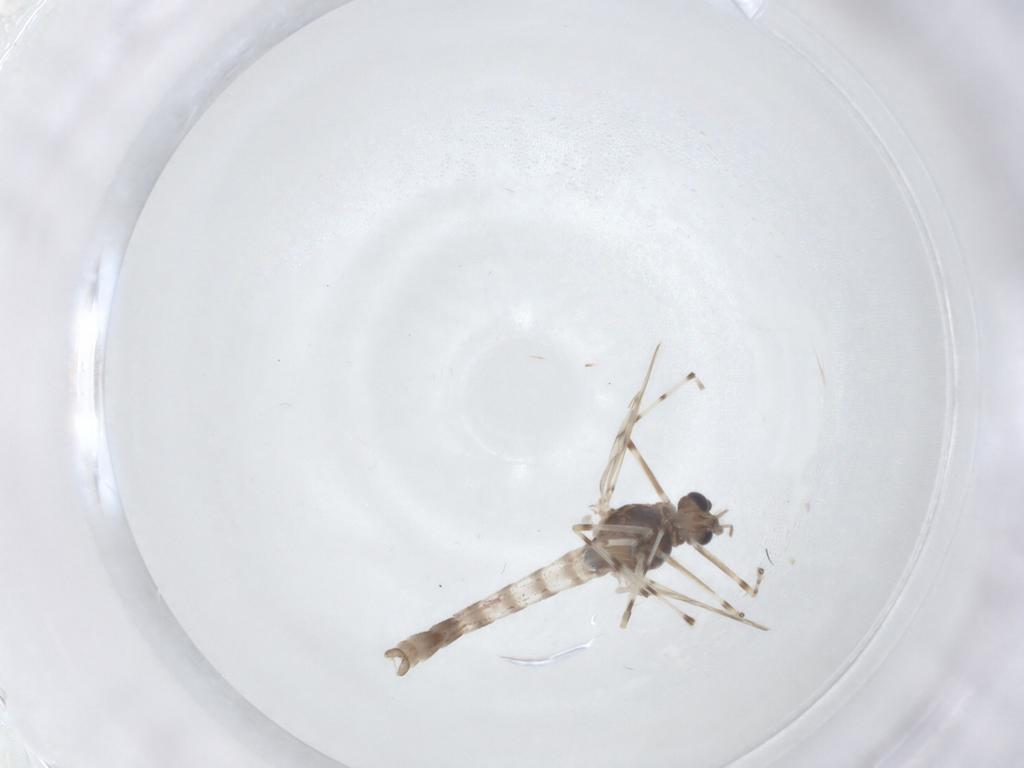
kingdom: Animalia
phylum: Arthropoda
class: Insecta
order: Diptera
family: Chironomidae
